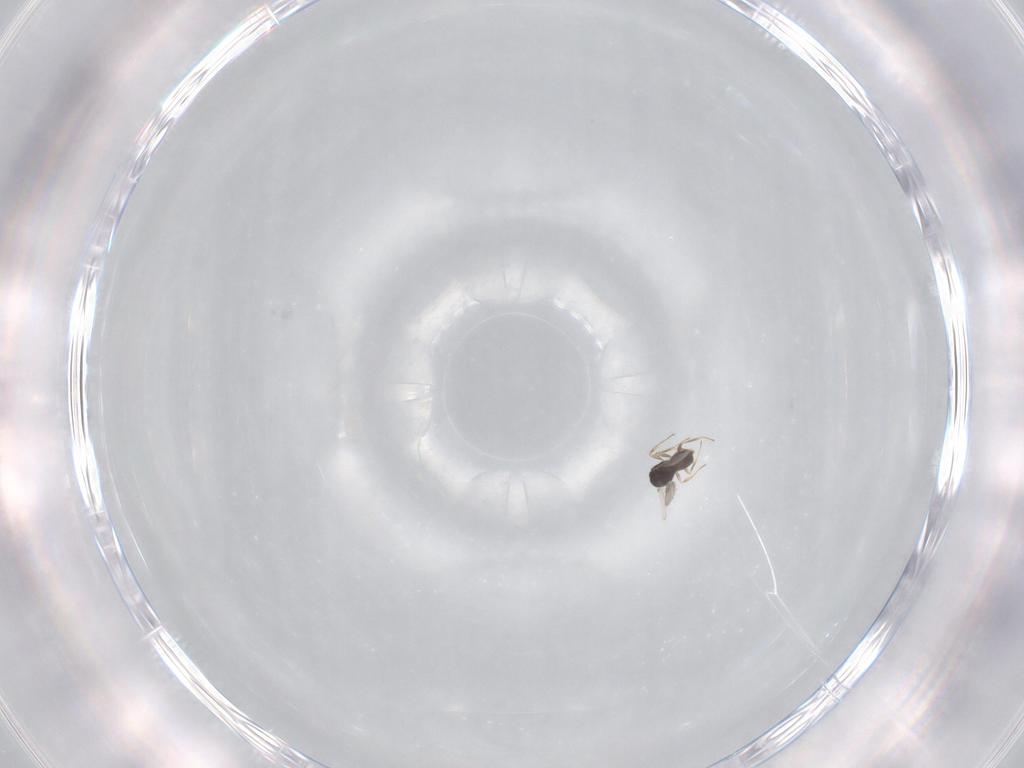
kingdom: Animalia
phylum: Arthropoda
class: Insecta
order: Hymenoptera
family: Scelionidae
